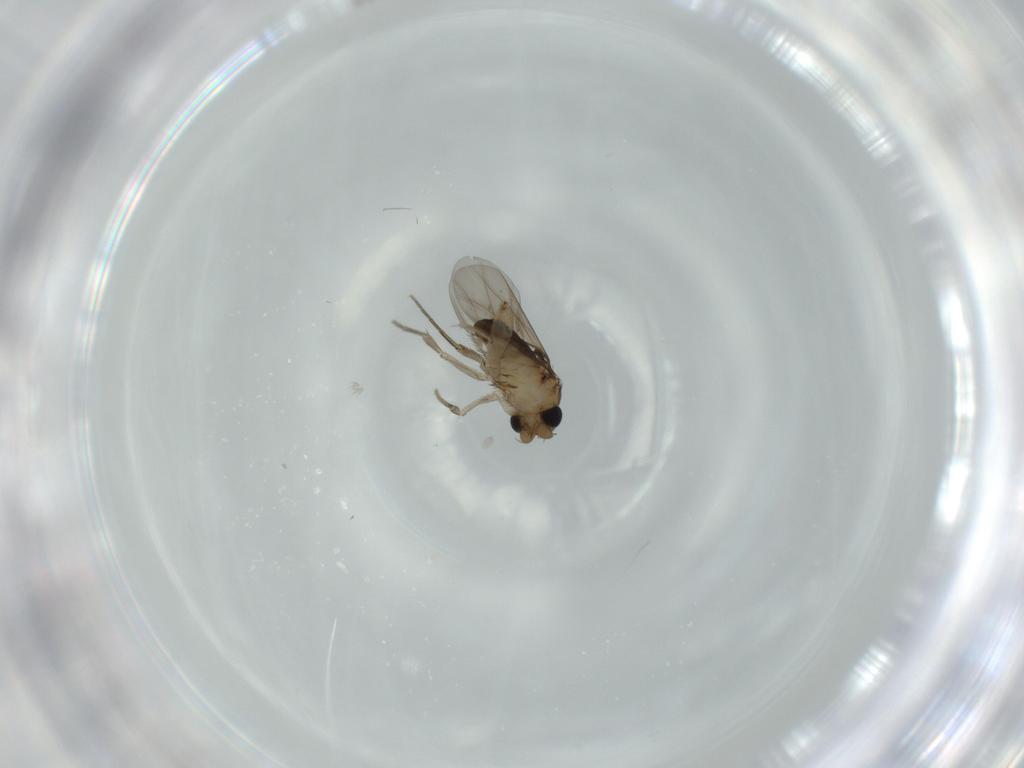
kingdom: Animalia
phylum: Arthropoda
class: Insecta
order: Diptera
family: Phoridae
